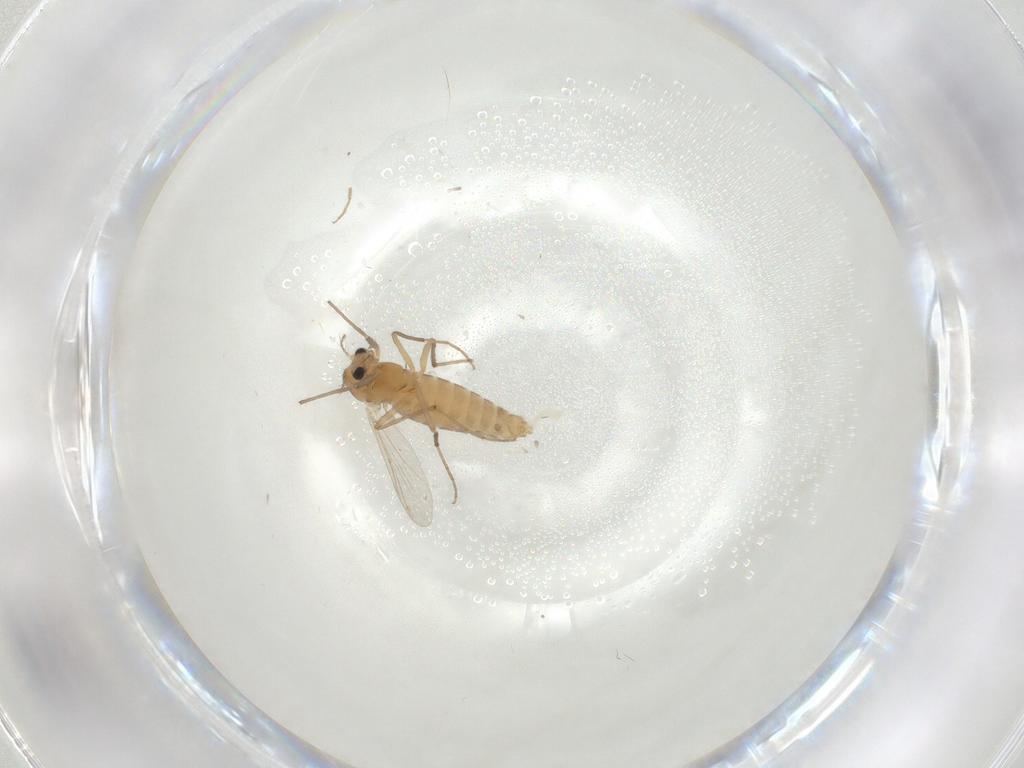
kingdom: Animalia
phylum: Arthropoda
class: Insecta
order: Diptera
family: Chironomidae
